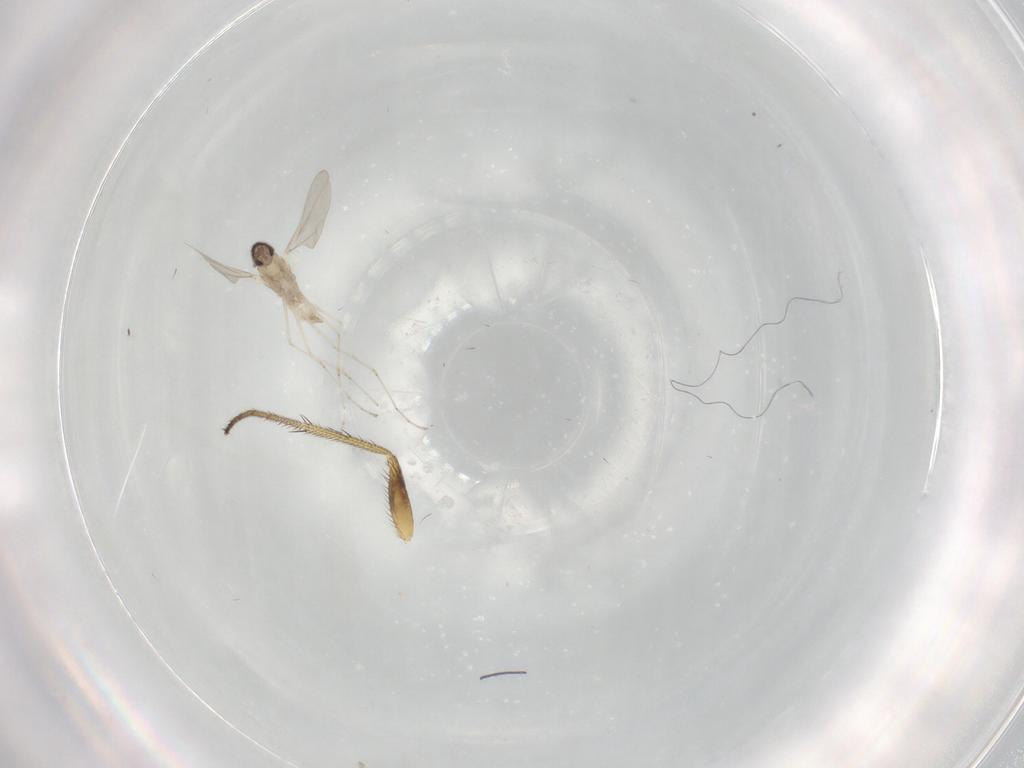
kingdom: Animalia
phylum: Arthropoda
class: Insecta
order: Diptera
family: Dolichopodidae
